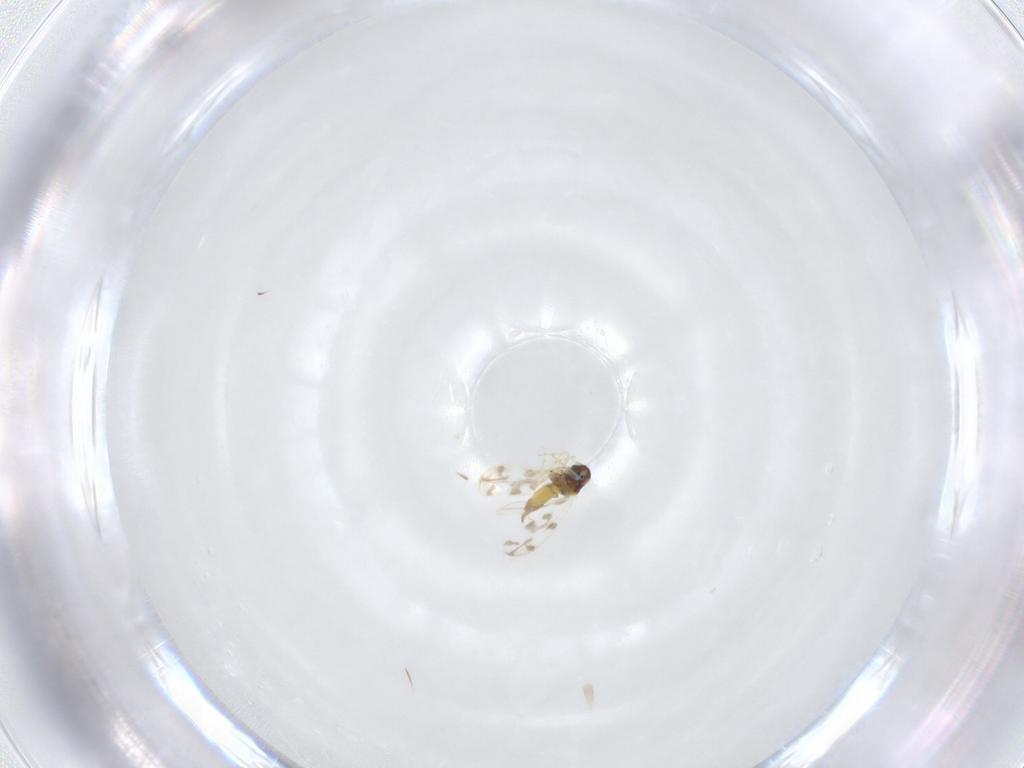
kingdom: Animalia
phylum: Arthropoda
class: Insecta
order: Hemiptera
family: Aleyrodidae
